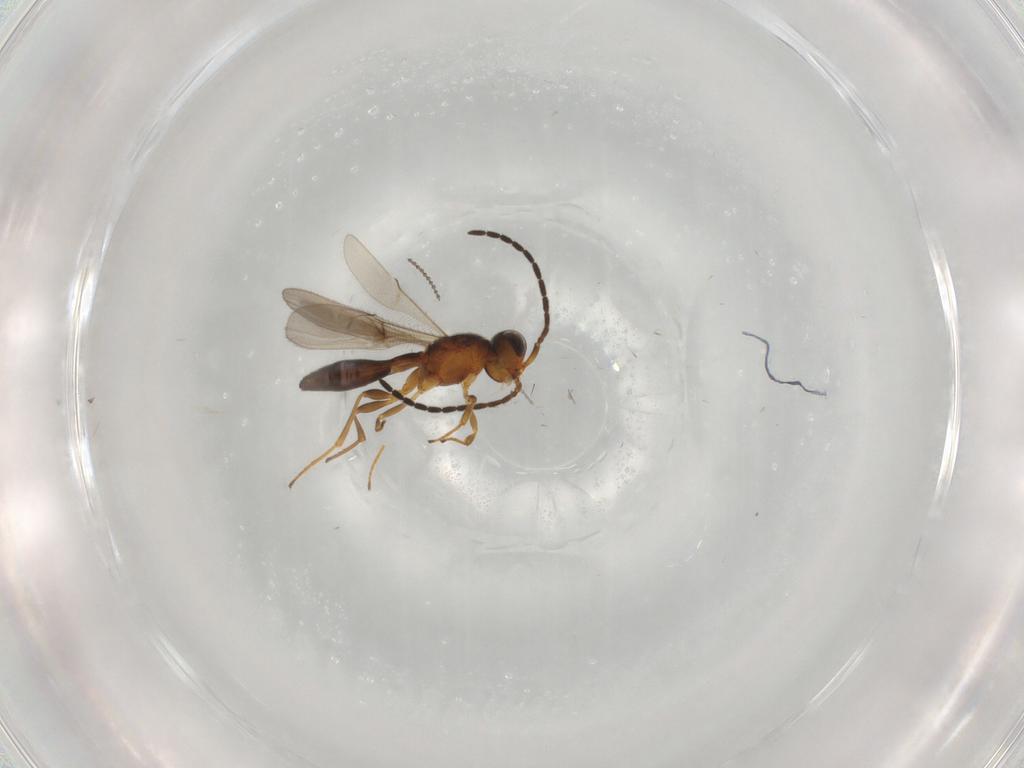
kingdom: Animalia
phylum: Arthropoda
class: Insecta
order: Hymenoptera
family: Scelionidae
